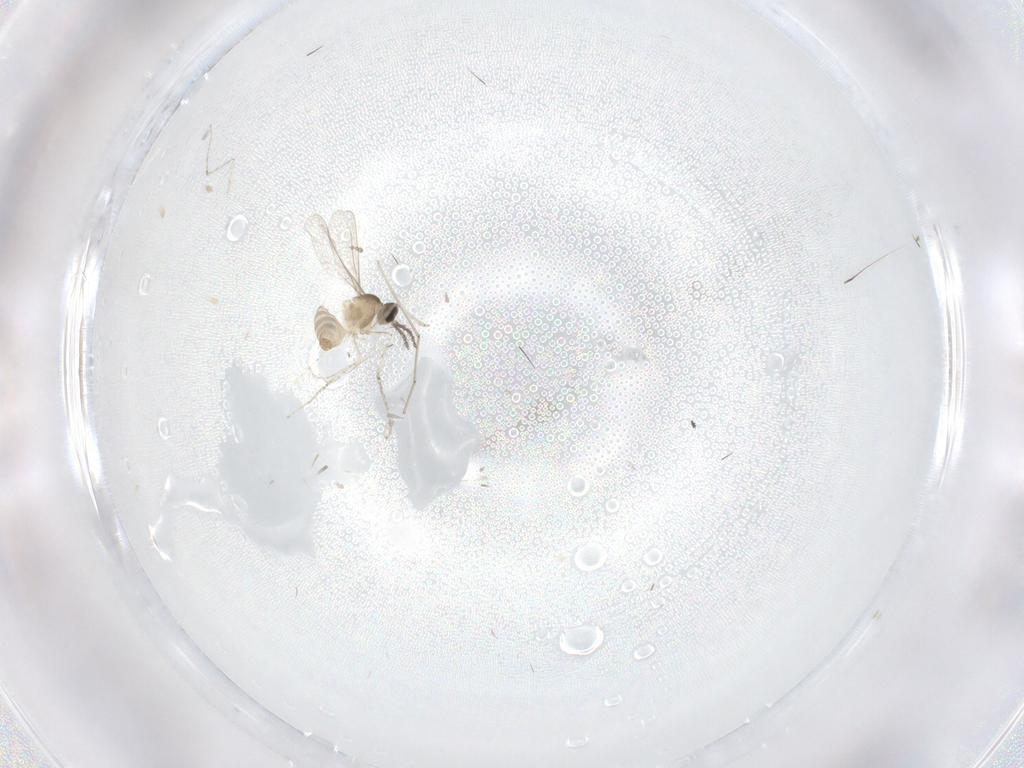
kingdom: Animalia
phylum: Arthropoda
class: Insecta
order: Diptera
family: Psychodidae
